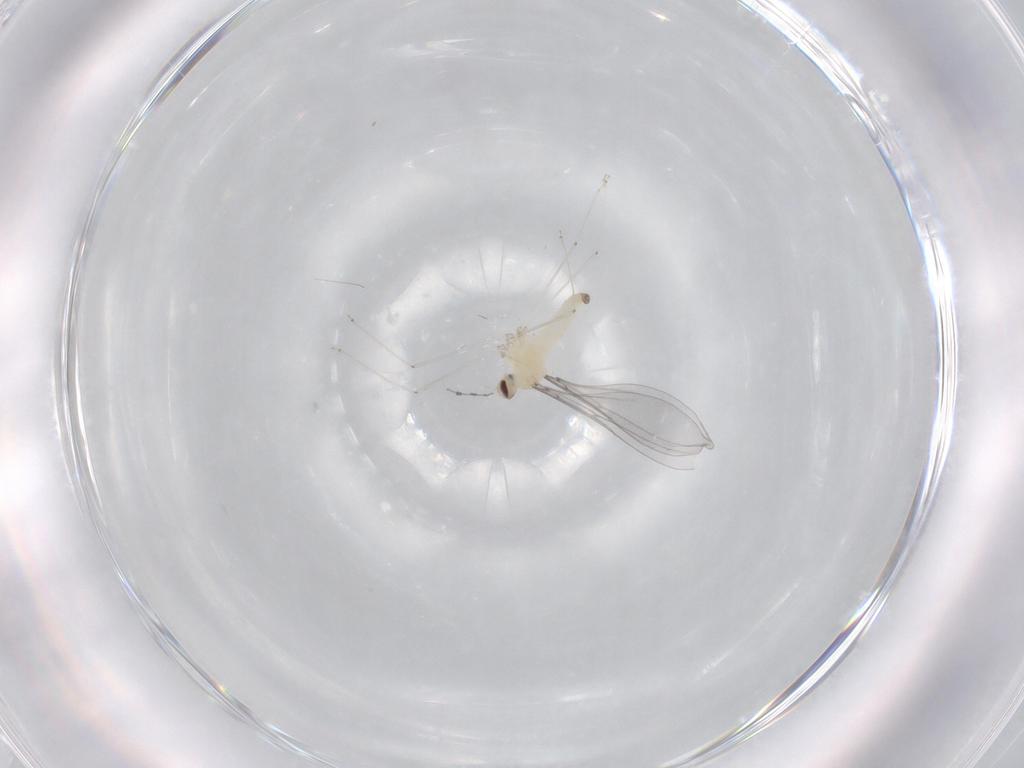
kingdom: Animalia
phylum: Arthropoda
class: Insecta
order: Diptera
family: Cecidomyiidae
